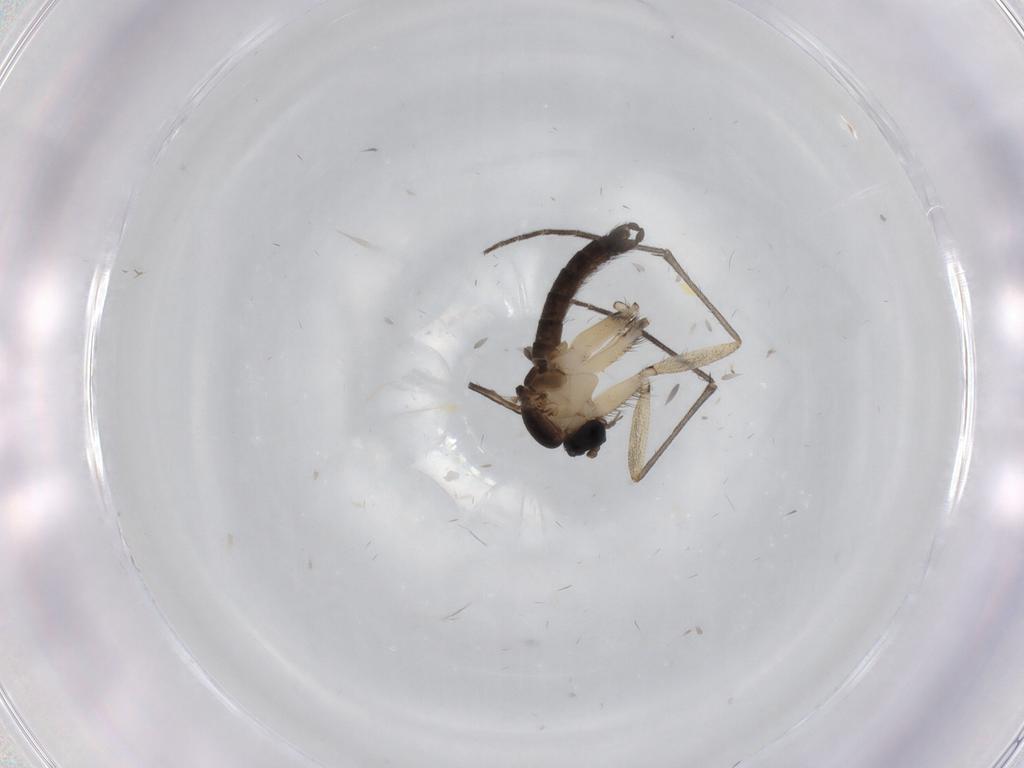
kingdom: Animalia
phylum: Arthropoda
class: Insecta
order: Diptera
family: Sciaridae
